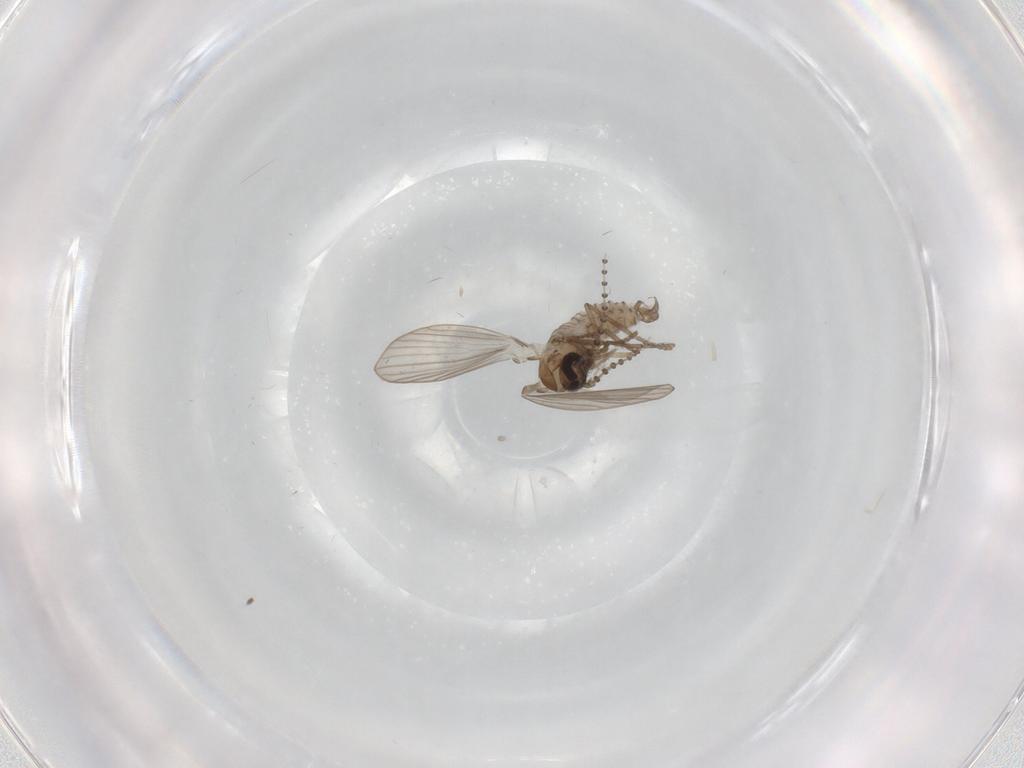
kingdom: Animalia
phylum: Arthropoda
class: Insecta
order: Diptera
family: Psychodidae
